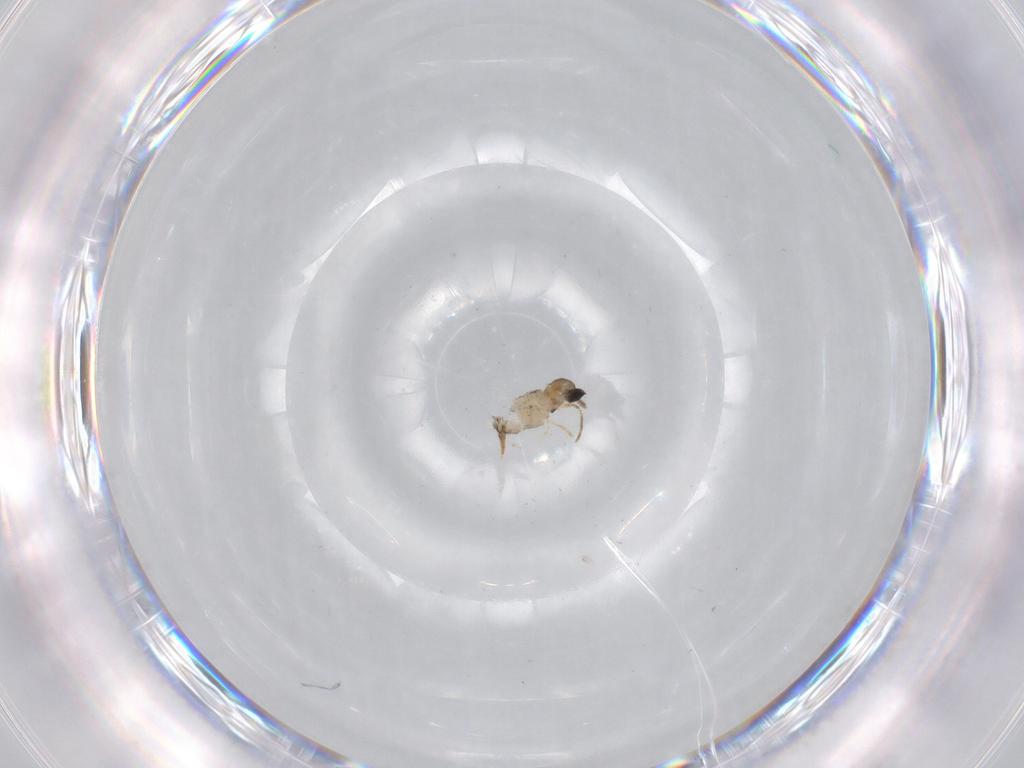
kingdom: Animalia
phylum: Arthropoda
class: Insecta
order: Diptera
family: Cecidomyiidae
